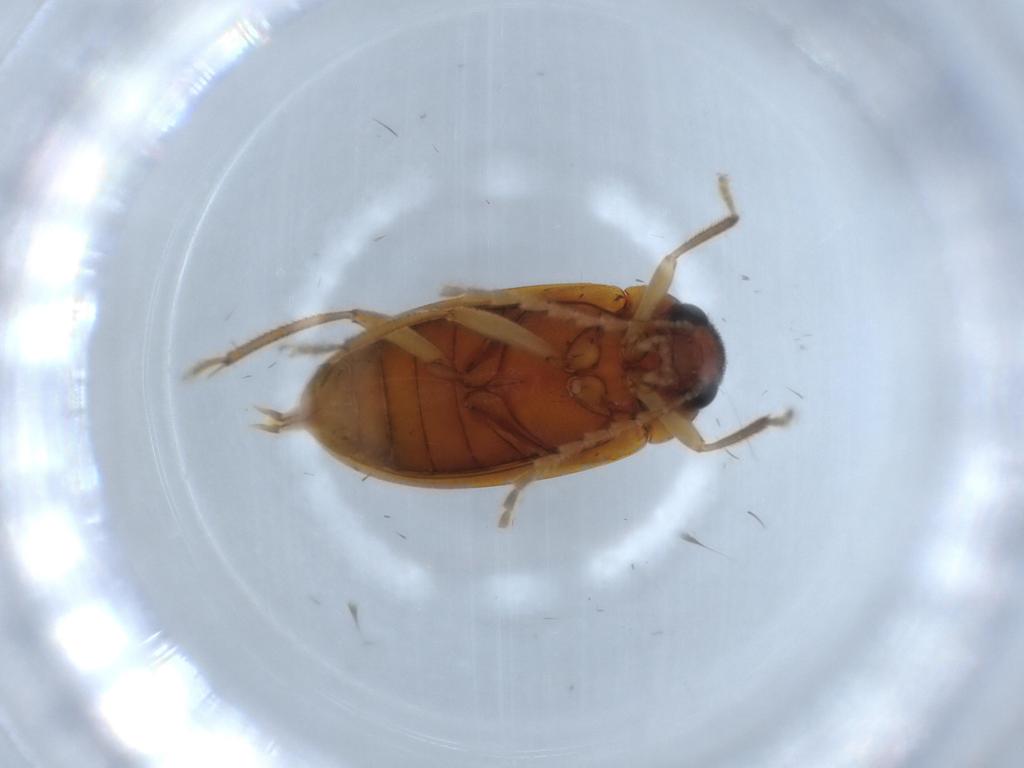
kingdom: Animalia
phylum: Arthropoda
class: Insecta
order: Coleoptera
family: Ptilodactylidae
